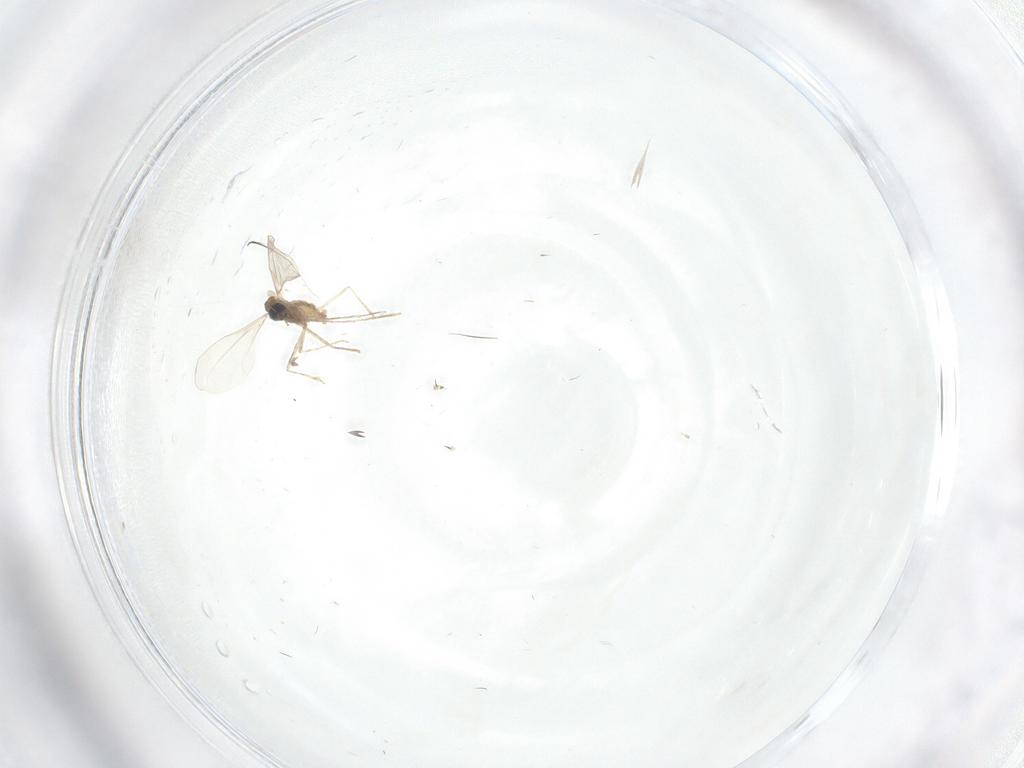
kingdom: Animalia
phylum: Arthropoda
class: Insecta
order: Diptera
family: Cecidomyiidae
